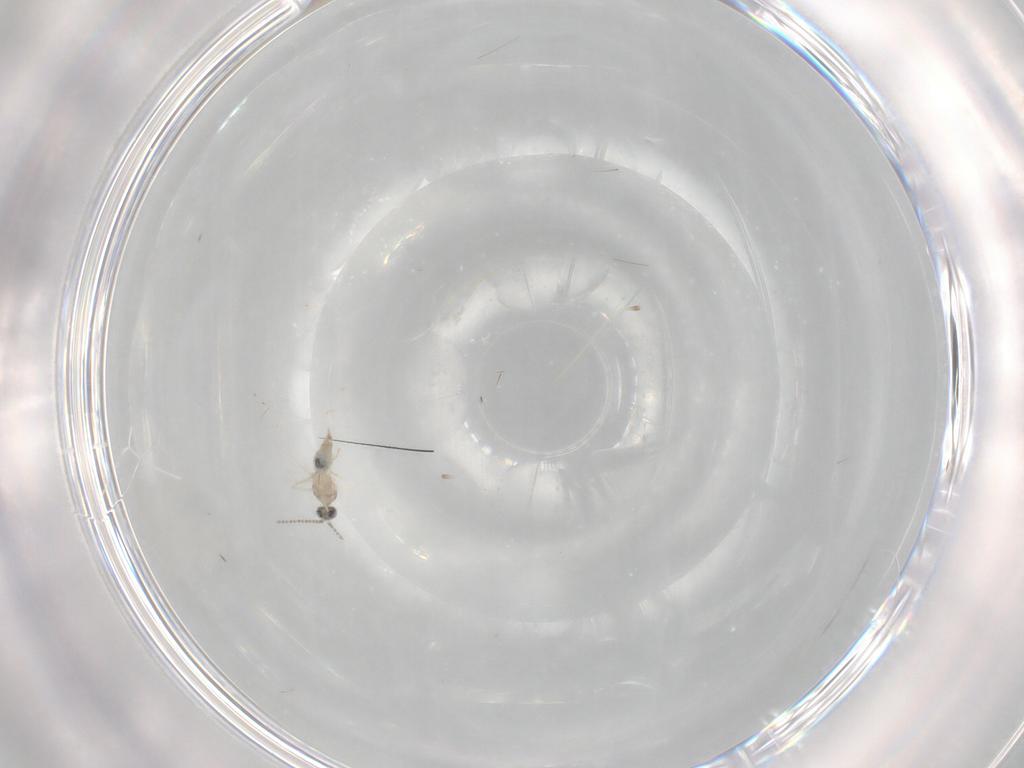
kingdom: Animalia
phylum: Arthropoda
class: Insecta
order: Diptera
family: Cecidomyiidae
